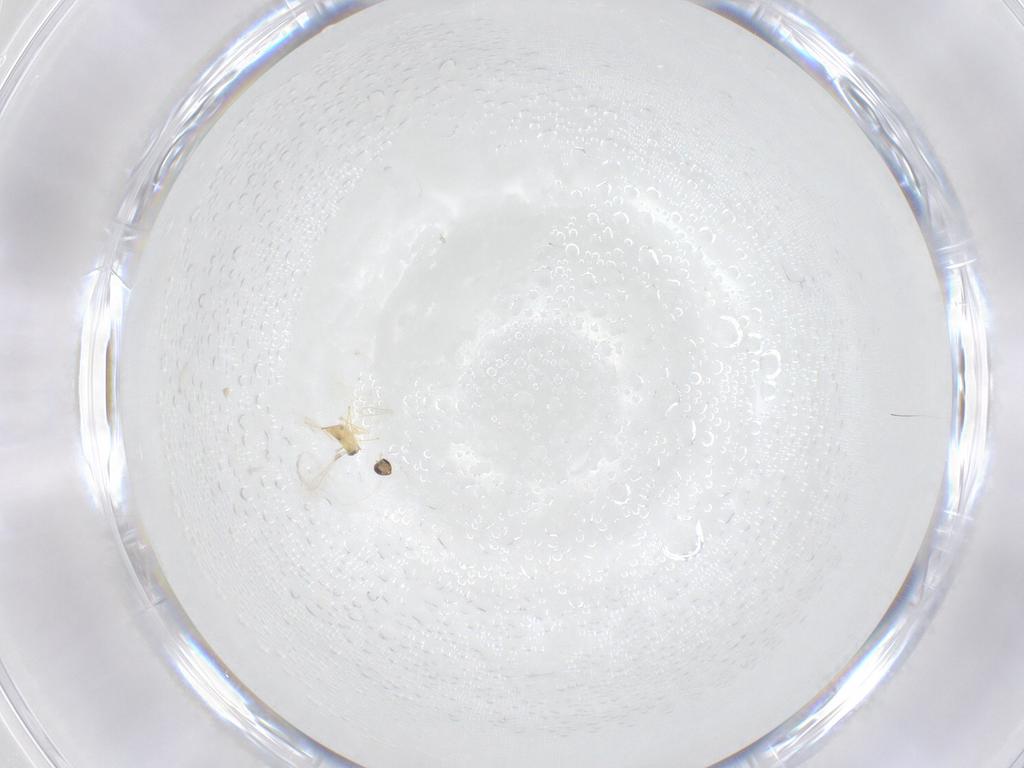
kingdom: Animalia
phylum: Arthropoda
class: Insecta
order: Hymenoptera
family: Mymaridae
